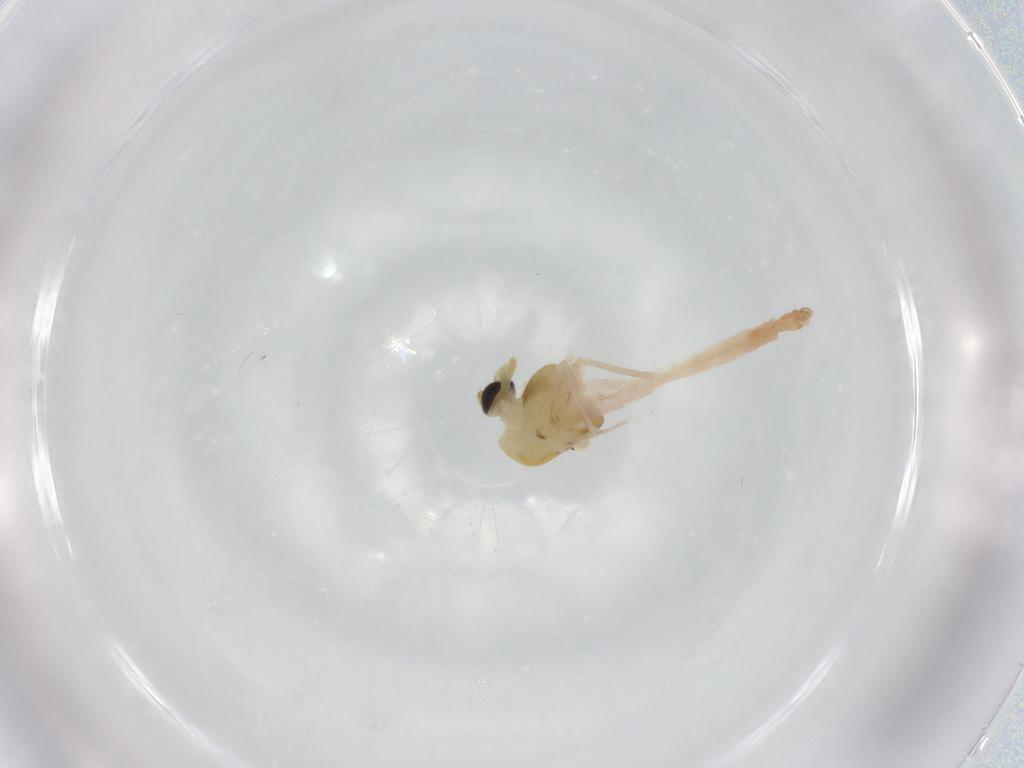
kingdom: Animalia
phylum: Arthropoda
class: Insecta
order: Diptera
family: Chironomidae
